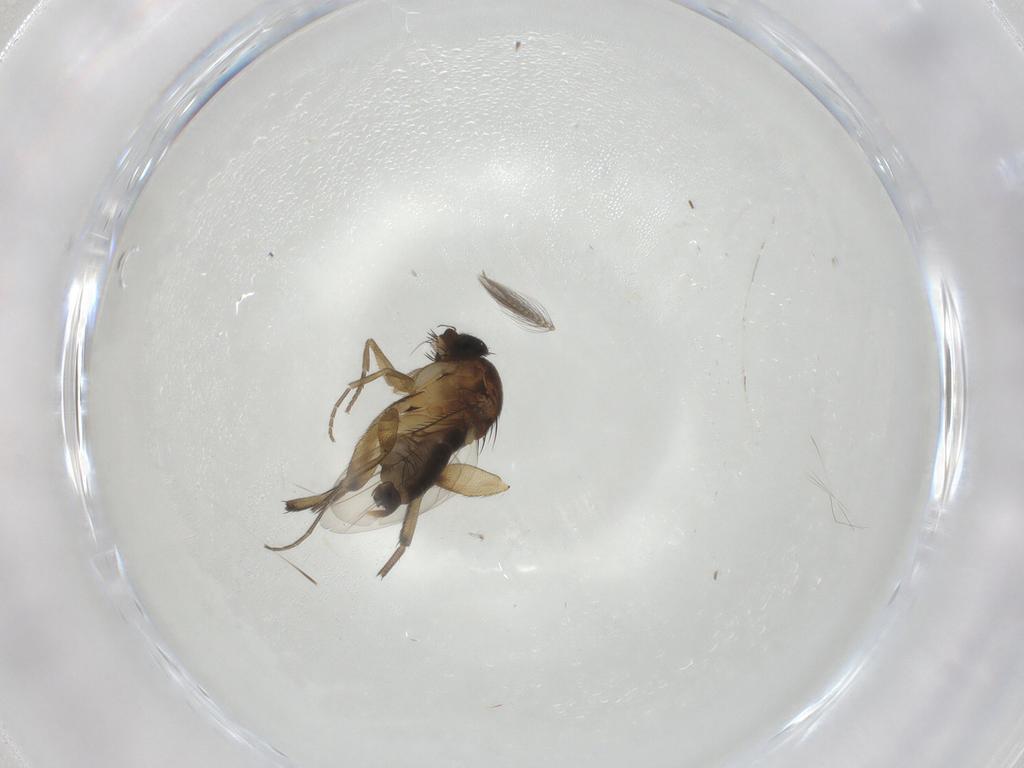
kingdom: Animalia
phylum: Arthropoda
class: Insecta
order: Diptera
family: Phoridae
